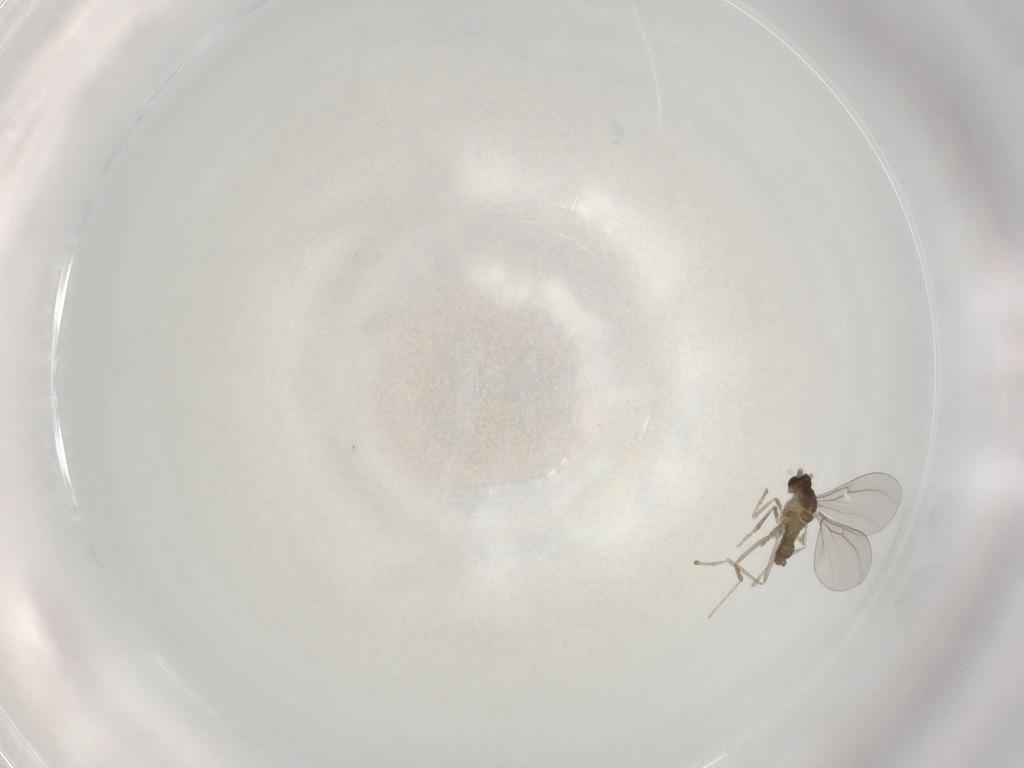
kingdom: Animalia
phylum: Arthropoda
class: Insecta
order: Diptera
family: Cecidomyiidae
